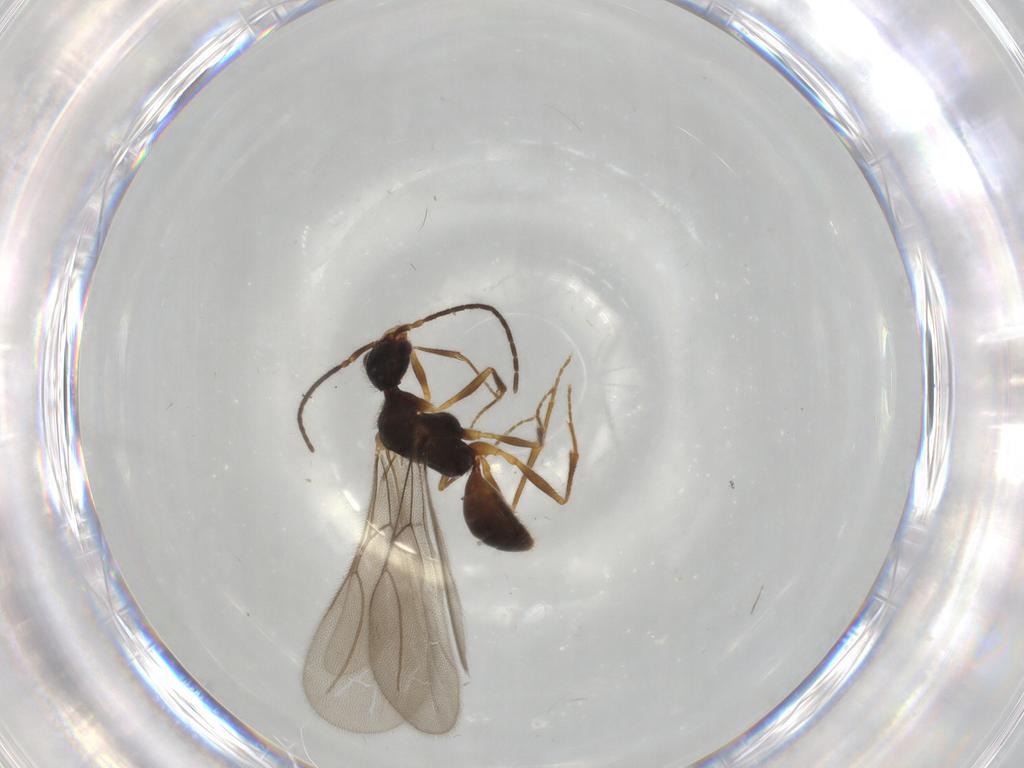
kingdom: Animalia
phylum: Arthropoda
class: Insecta
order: Hymenoptera
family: Bethylidae
